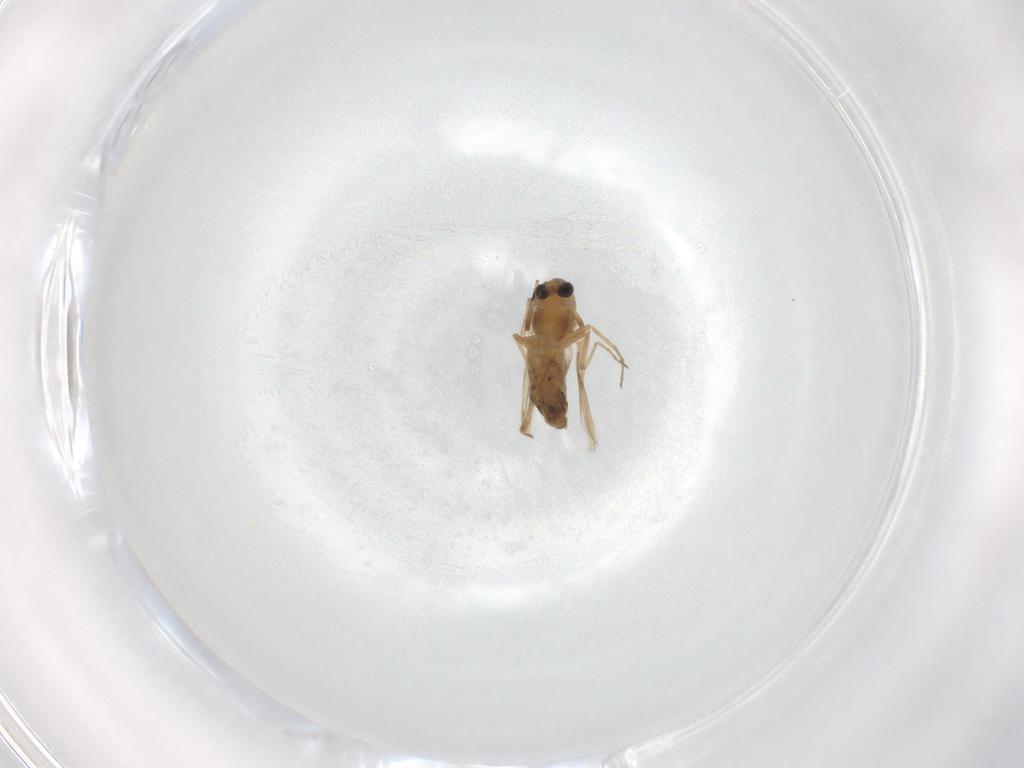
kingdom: Animalia
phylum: Arthropoda
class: Insecta
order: Diptera
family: Chironomidae
